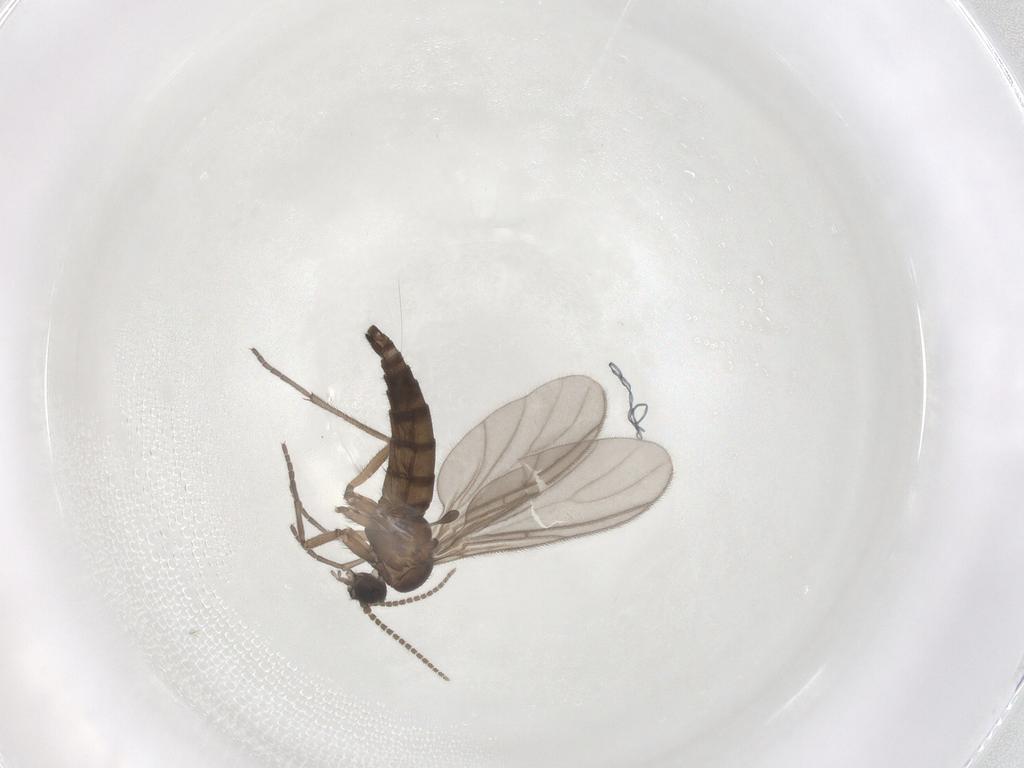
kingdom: Animalia
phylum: Arthropoda
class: Insecta
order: Diptera
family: Sciaridae
